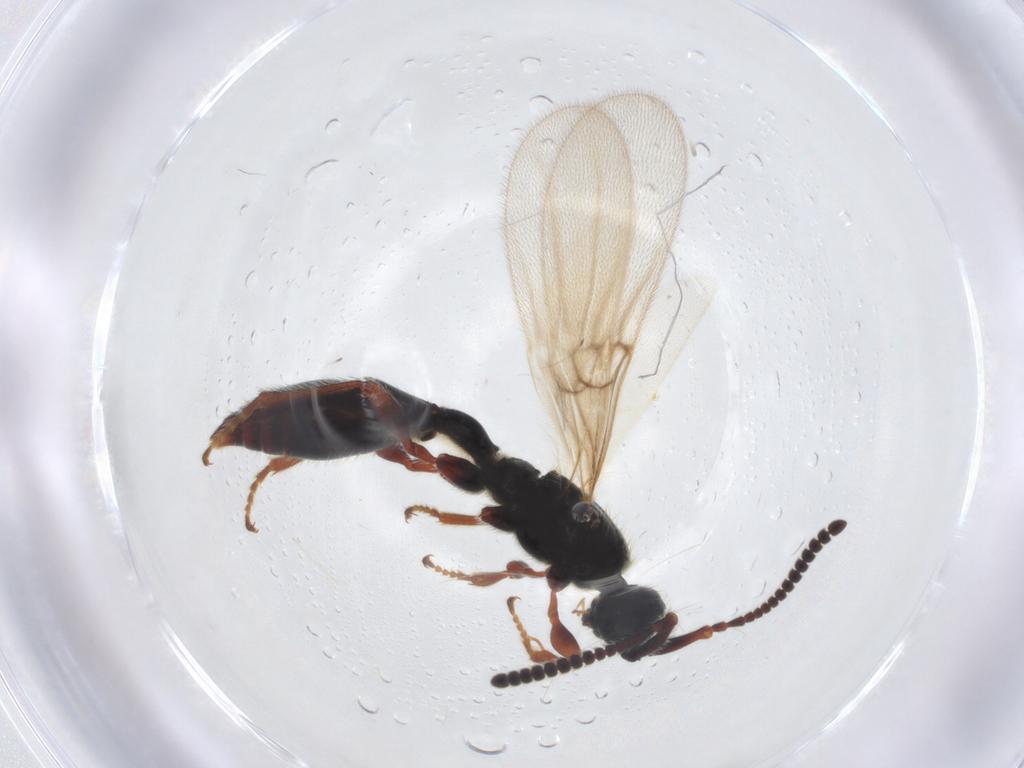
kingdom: Animalia
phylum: Arthropoda
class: Insecta
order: Hymenoptera
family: Diapriidae
